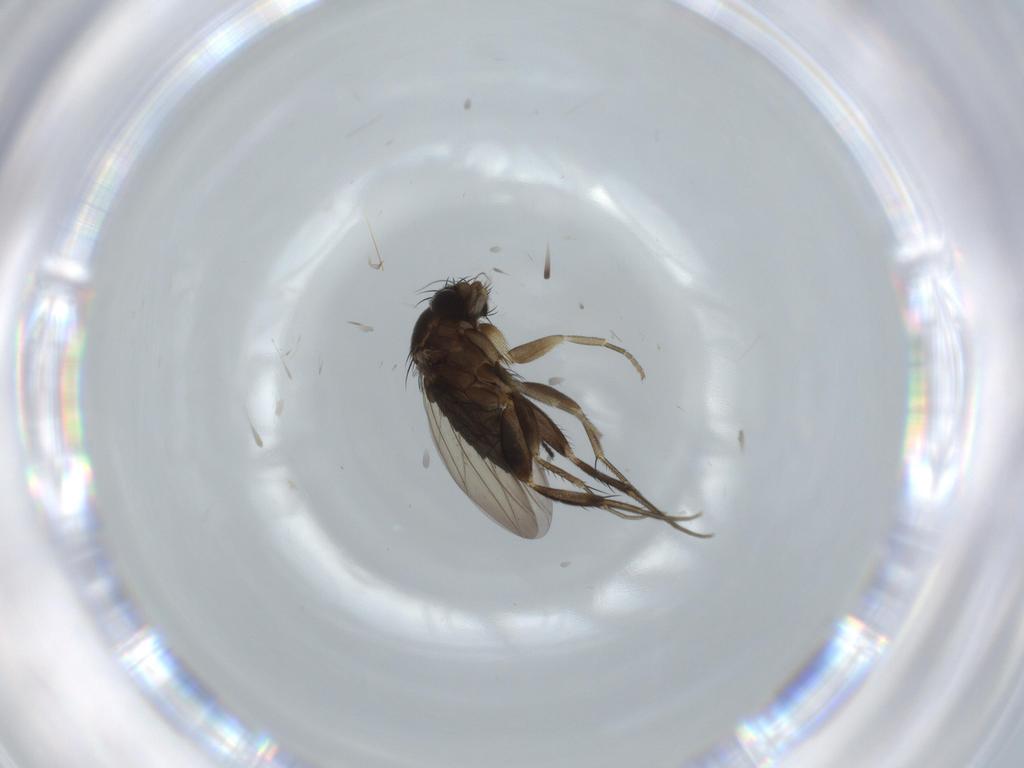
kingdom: Animalia
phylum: Arthropoda
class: Insecta
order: Diptera
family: Phoridae
